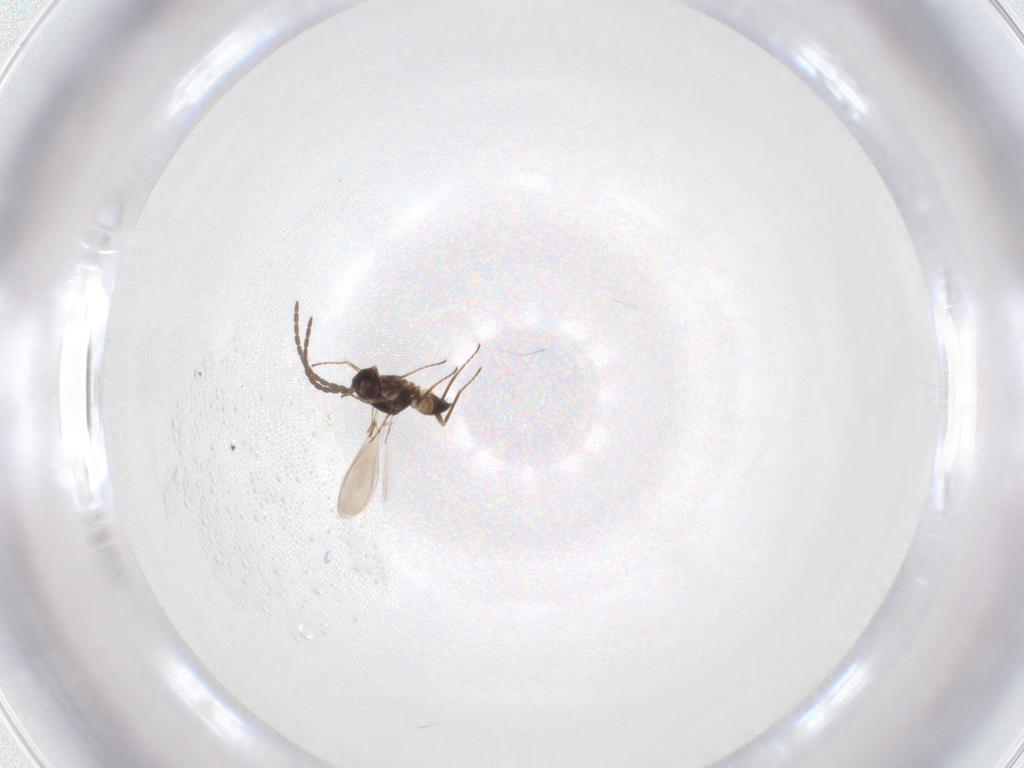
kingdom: Animalia
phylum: Arthropoda
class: Insecta
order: Hymenoptera
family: Mymaridae
